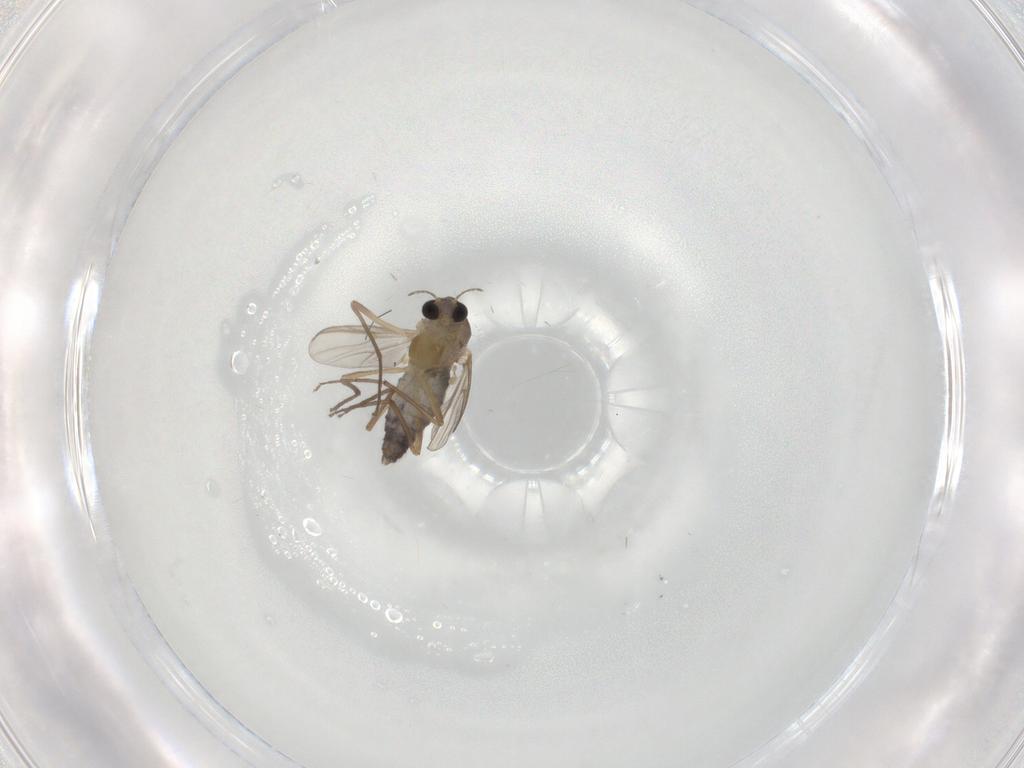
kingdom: Animalia
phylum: Arthropoda
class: Insecta
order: Diptera
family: Chironomidae
